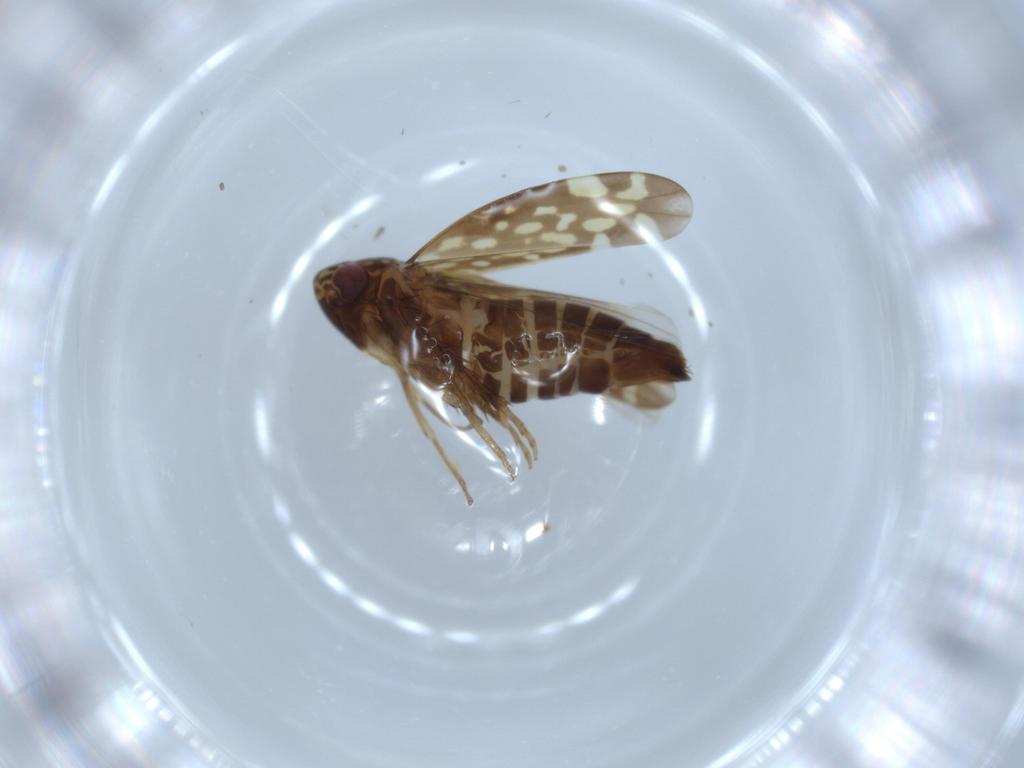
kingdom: Animalia
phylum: Arthropoda
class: Insecta
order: Hemiptera
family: Cicadellidae
